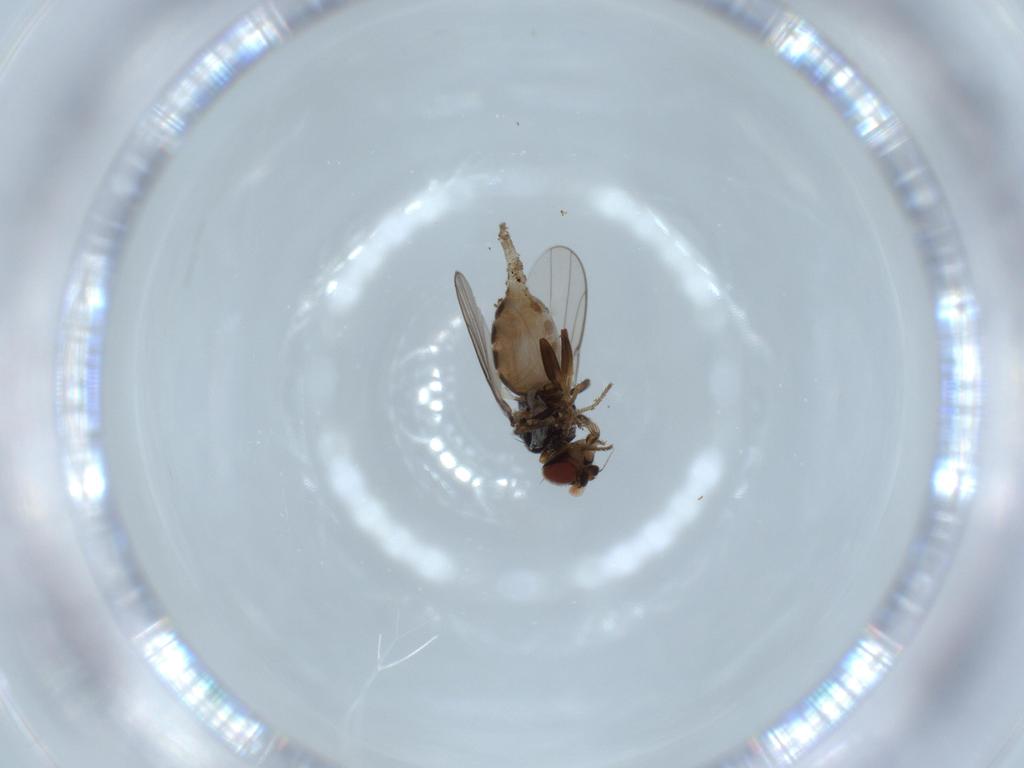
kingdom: Animalia
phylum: Arthropoda
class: Insecta
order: Diptera
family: Chloropidae
